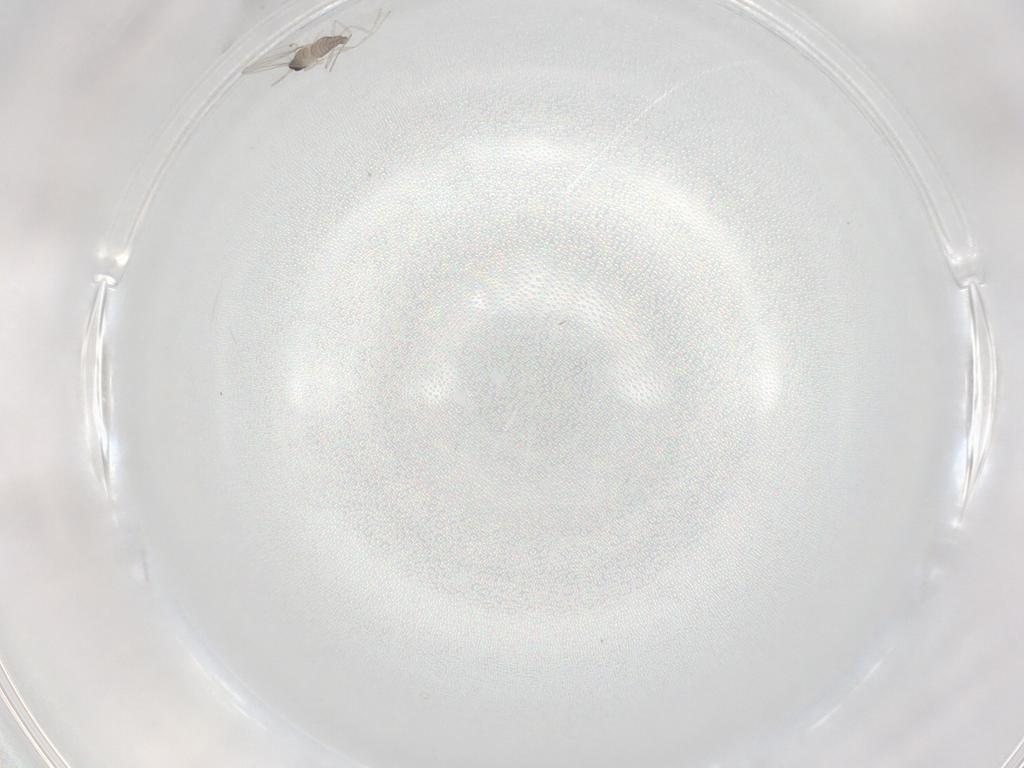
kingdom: Animalia
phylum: Arthropoda
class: Insecta
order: Diptera
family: Cecidomyiidae
